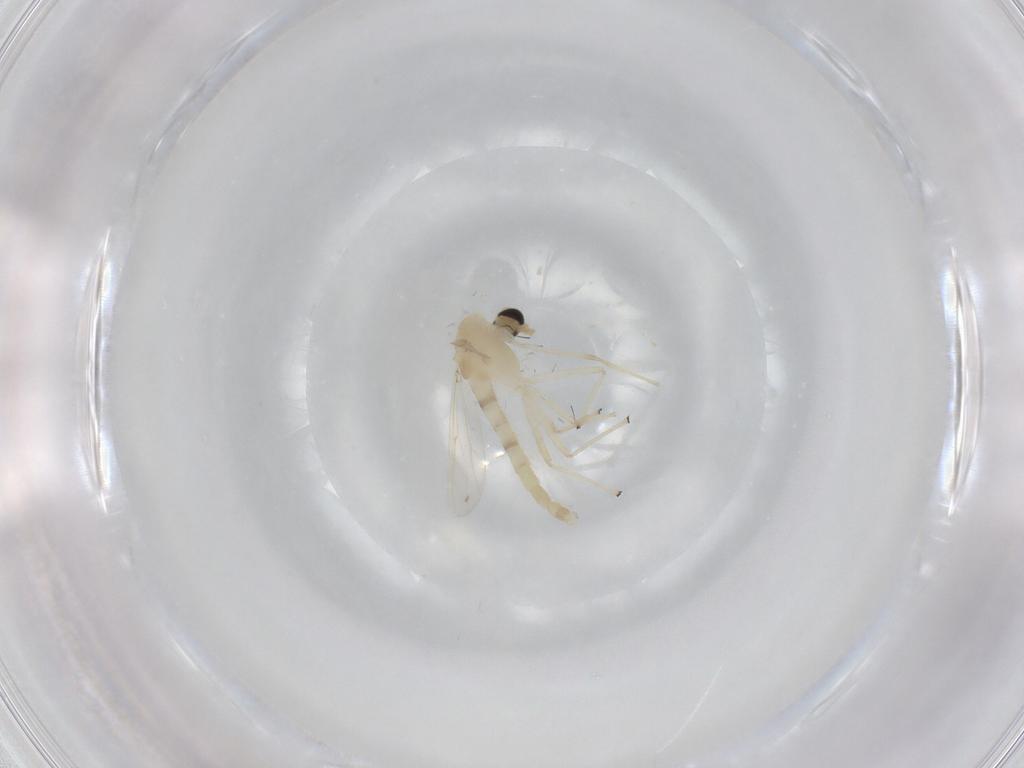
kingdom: Animalia
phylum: Arthropoda
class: Insecta
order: Diptera
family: Chironomidae
